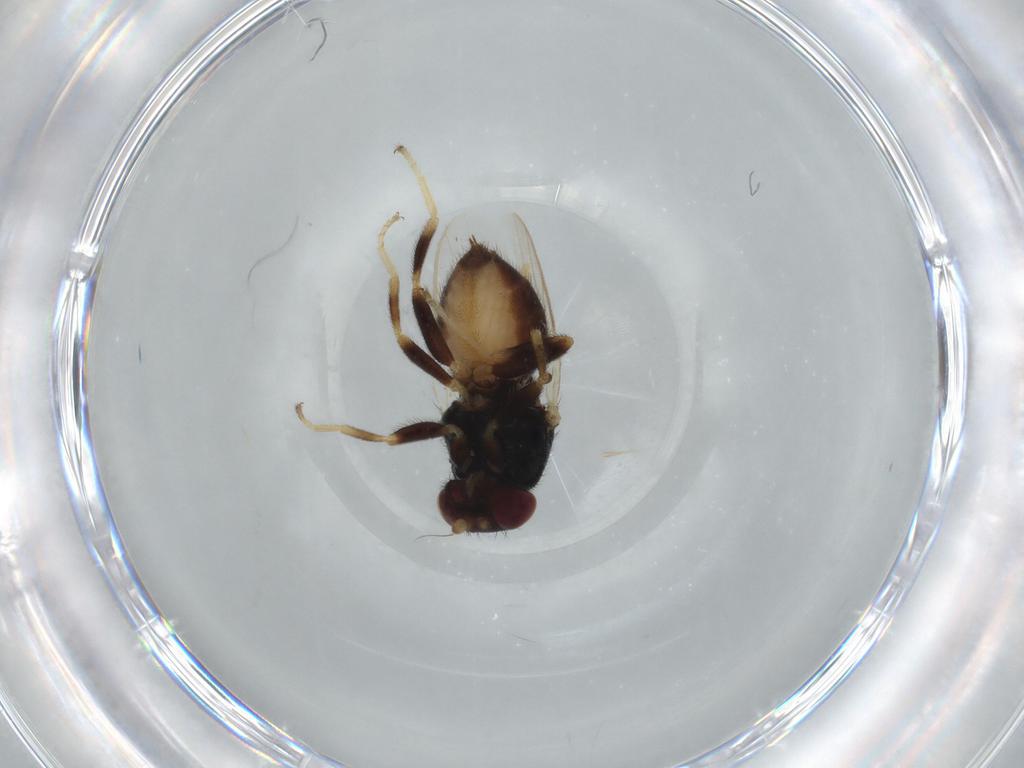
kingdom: Animalia
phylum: Arthropoda
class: Insecta
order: Diptera
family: Chloropidae
